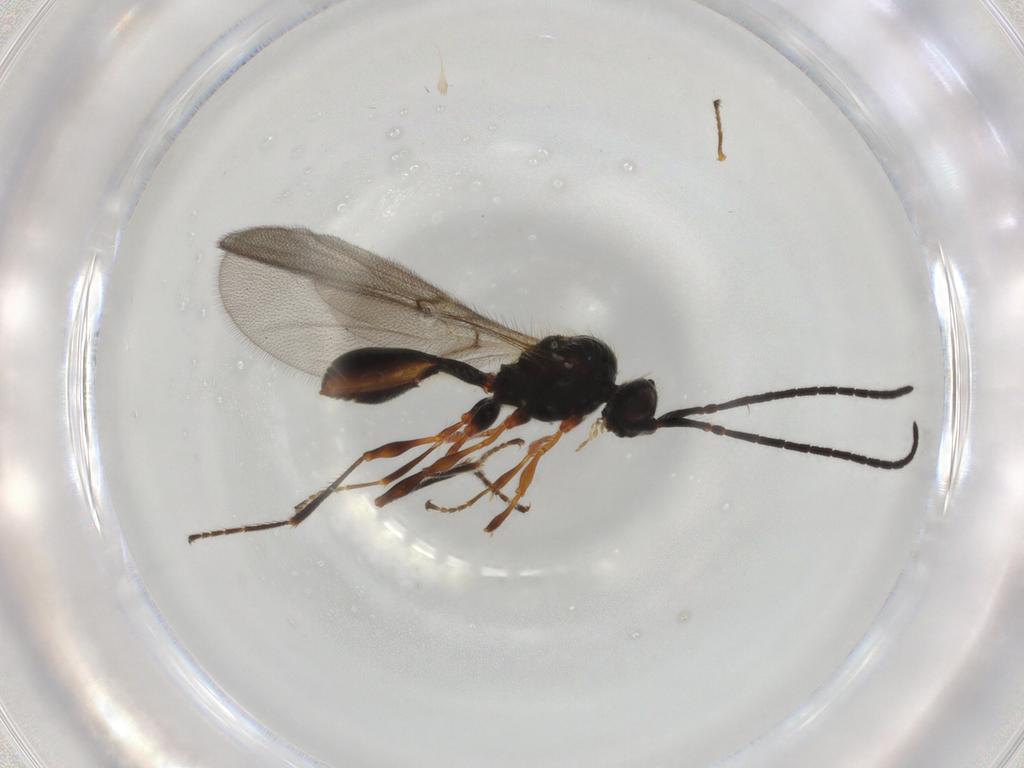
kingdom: Animalia
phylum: Arthropoda
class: Insecta
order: Hymenoptera
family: Diapriidae
